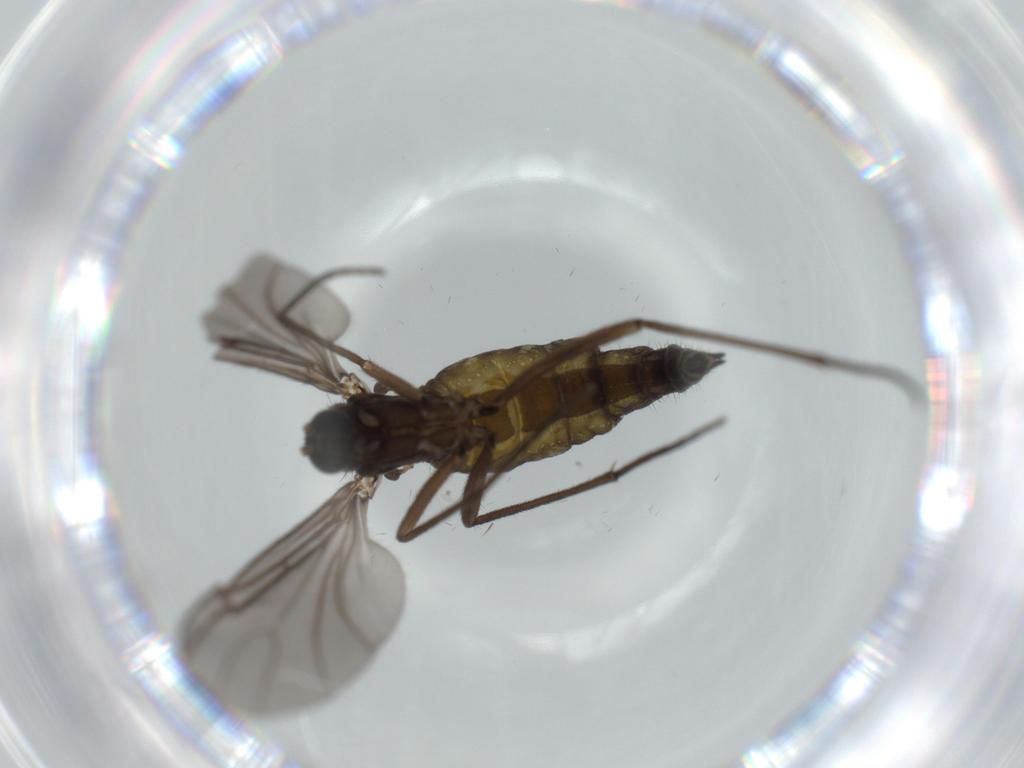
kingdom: Animalia
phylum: Arthropoda
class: Insecta
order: Diptera
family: Sciaridae
